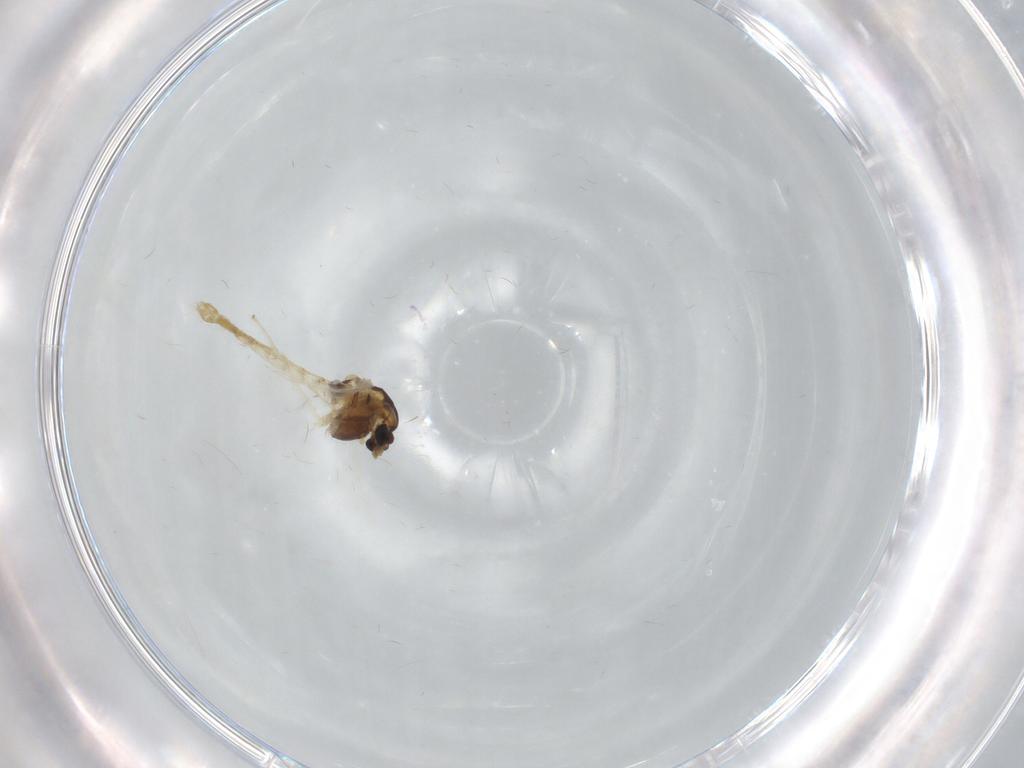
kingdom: Animalia
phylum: Arthropoda
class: Insecta
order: Diptera
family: Chironomidae
